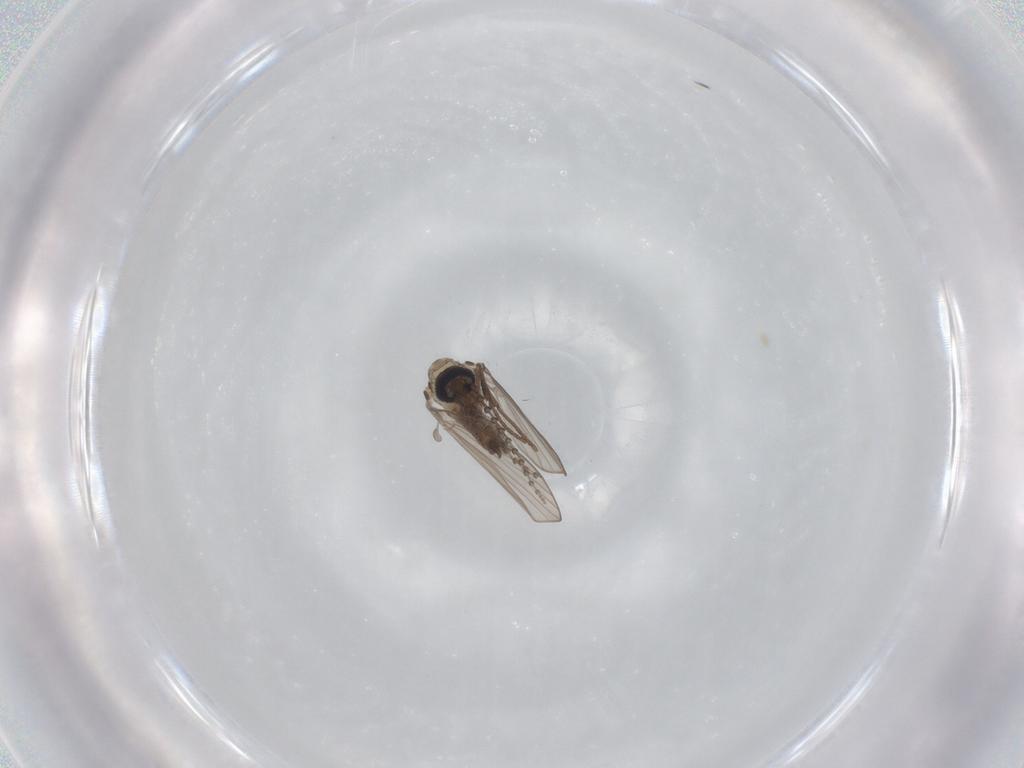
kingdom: Animalia
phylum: Arthropoda
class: Insecta
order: Diptera
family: Psychodidae
